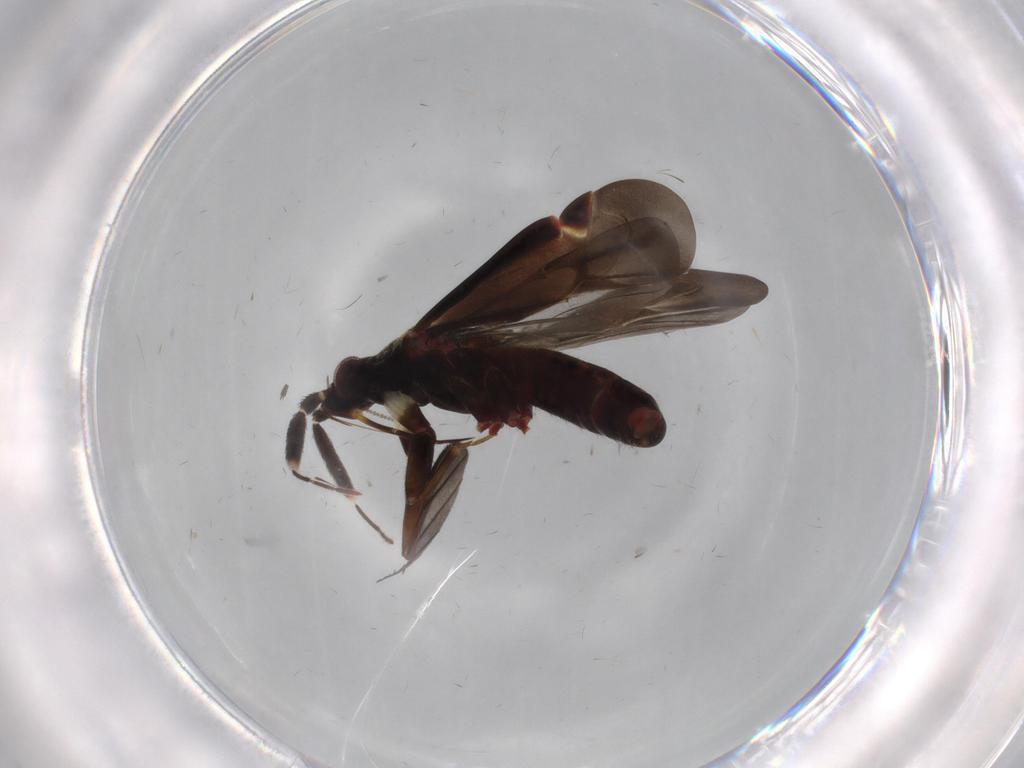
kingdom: Animalia
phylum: Arthropoda
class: Insecta
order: Hemiptera
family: Miridae
